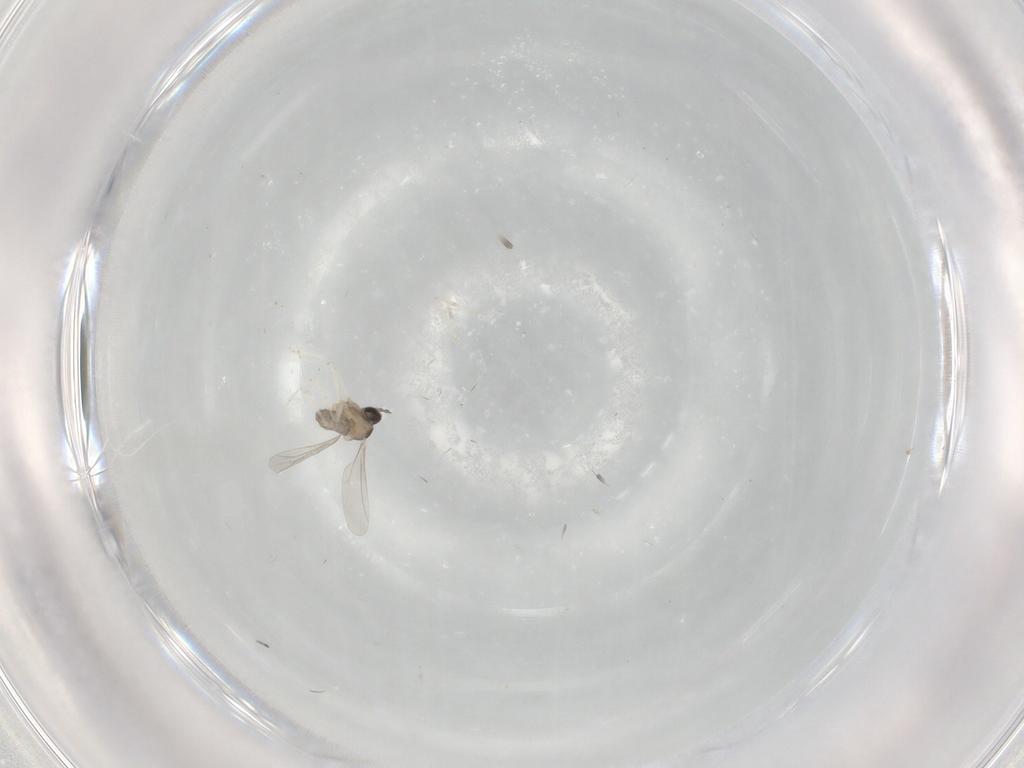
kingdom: Animalia
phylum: Arthropoda
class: Insecta
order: Diptera
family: Cecidomyiidae
